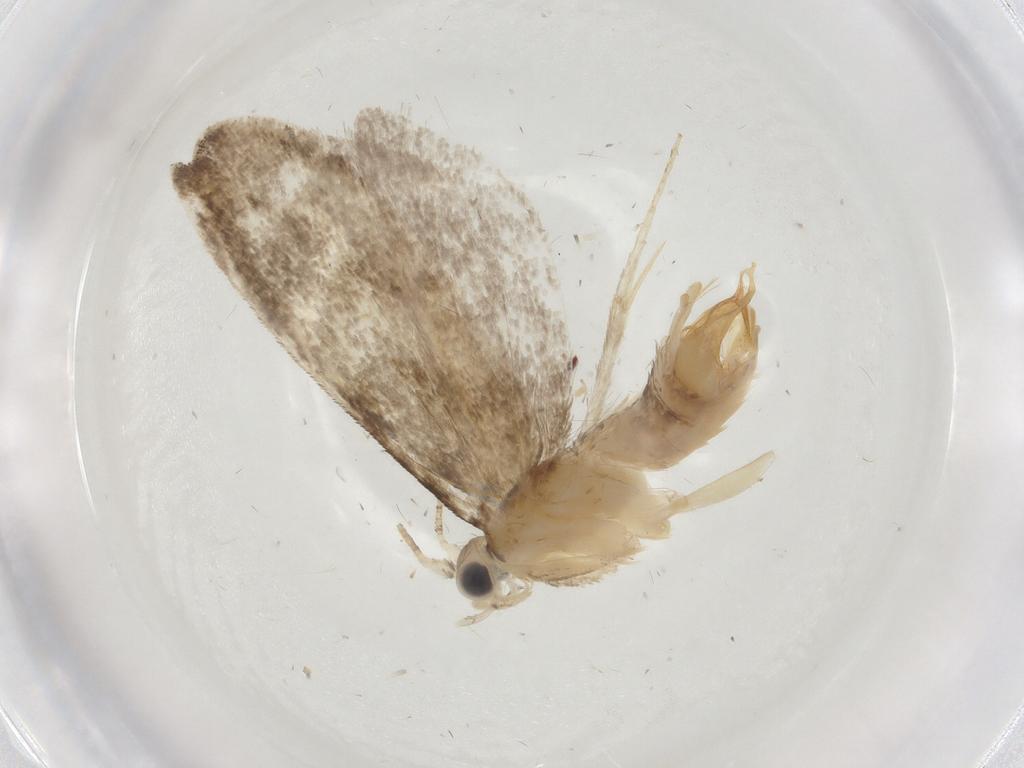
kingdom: Animalia
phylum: Arthropoda
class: Insecta
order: Lepidoptera
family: Tineidae
